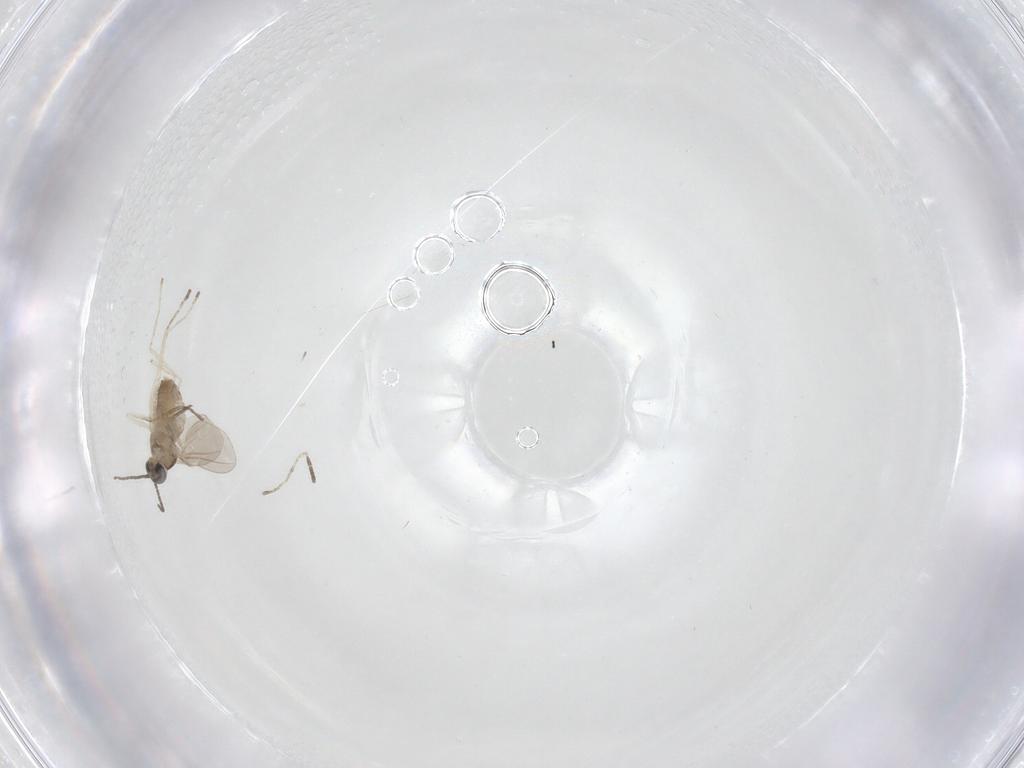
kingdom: Animalia
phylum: Arthropoda
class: Insecta
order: Diptera
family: Cecidomyiidae
